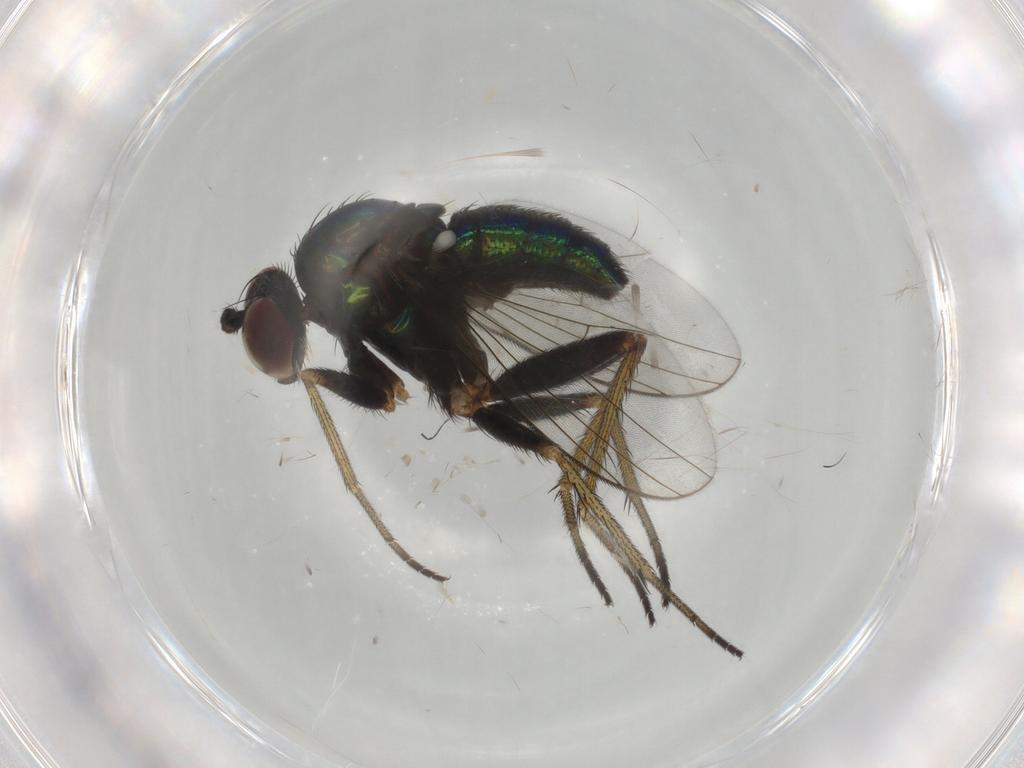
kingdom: Animalia
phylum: Arthropoda
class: Insecta
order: Diptera
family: Dolichopodidae
